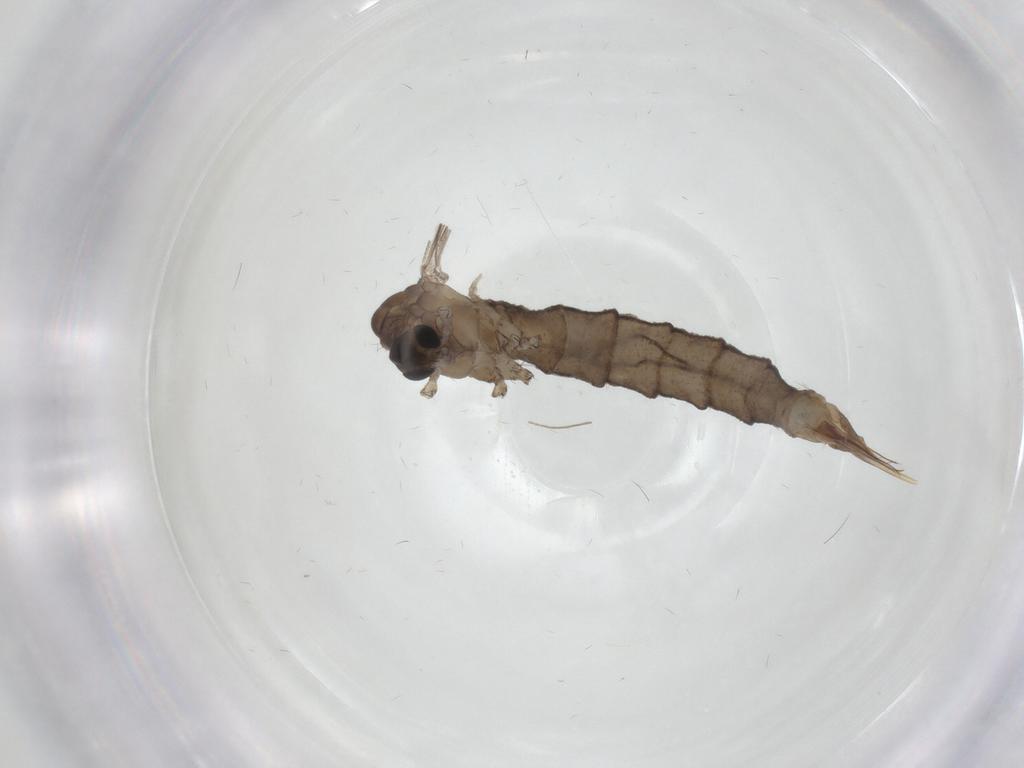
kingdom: Animalia
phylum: Arthropoda
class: Insecta
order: Diptera
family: Limoniidae
